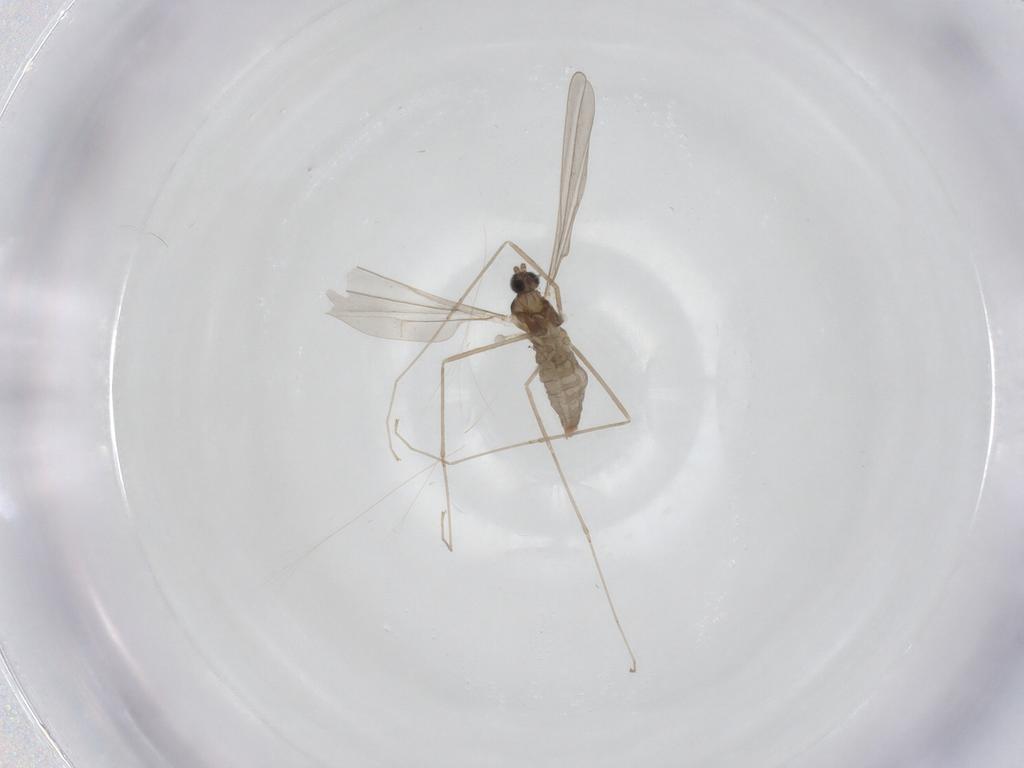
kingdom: Animalia
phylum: Arthropoda
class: Insecta
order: Diptera
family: Cecidomyiidae
